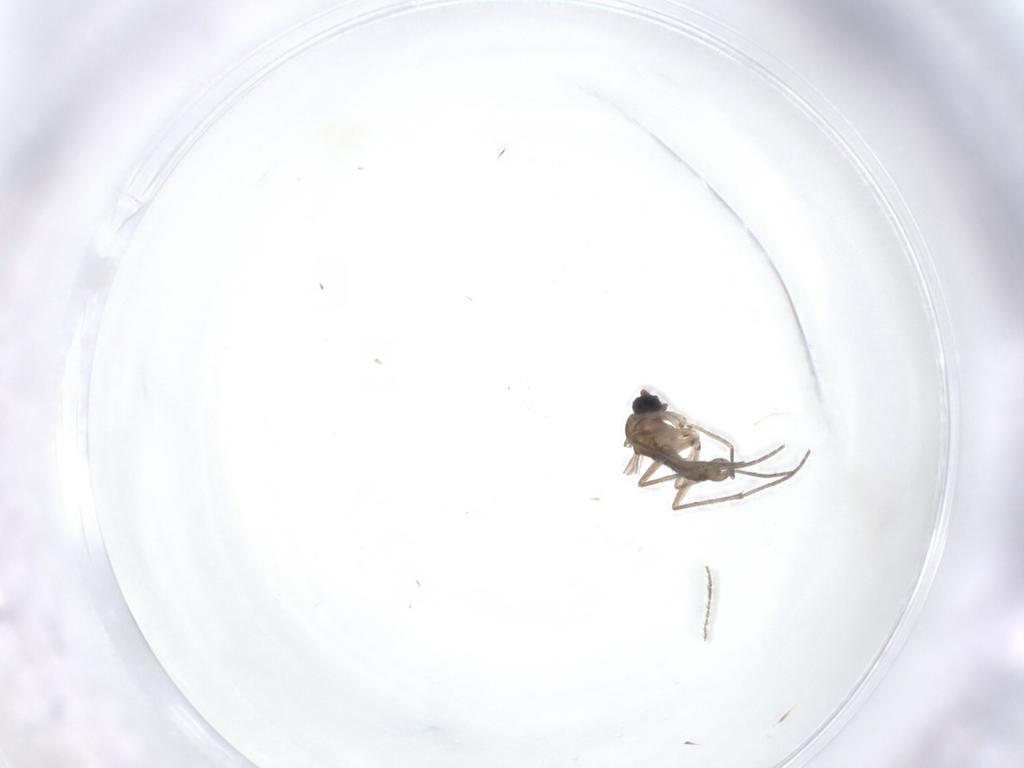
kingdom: Animalia
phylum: Arthropoda
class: Insecta
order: Diptera
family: Sciaridae
